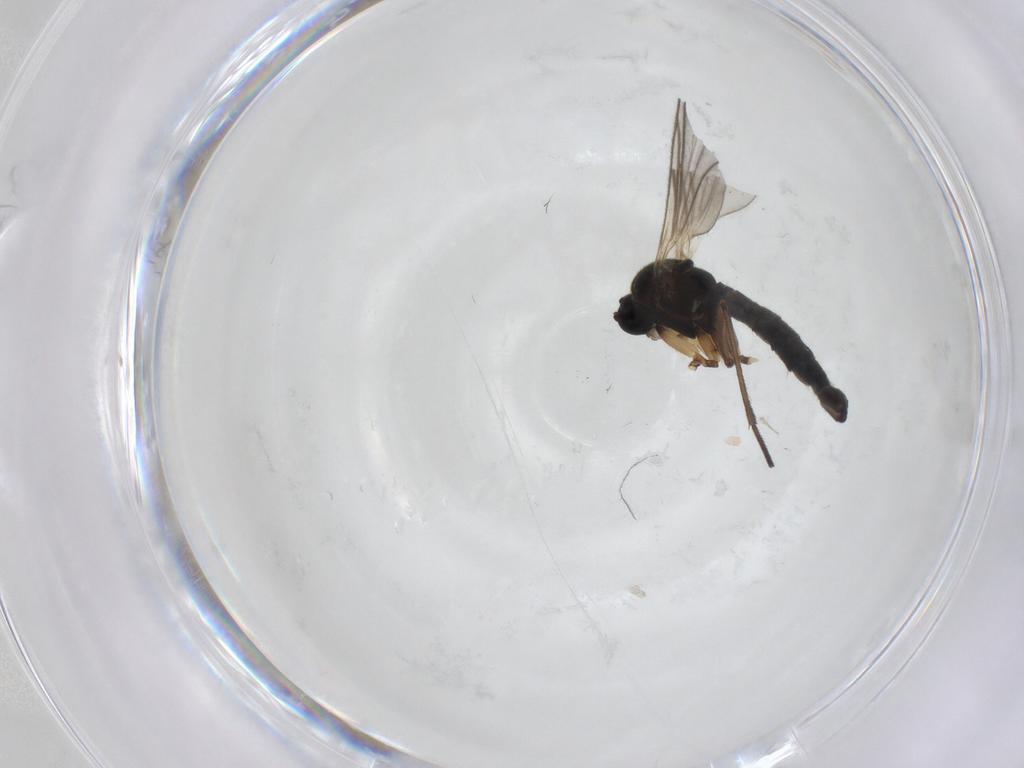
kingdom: Animalia
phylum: Arthropoda
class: Insecta
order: Diptera
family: Sciaridae
